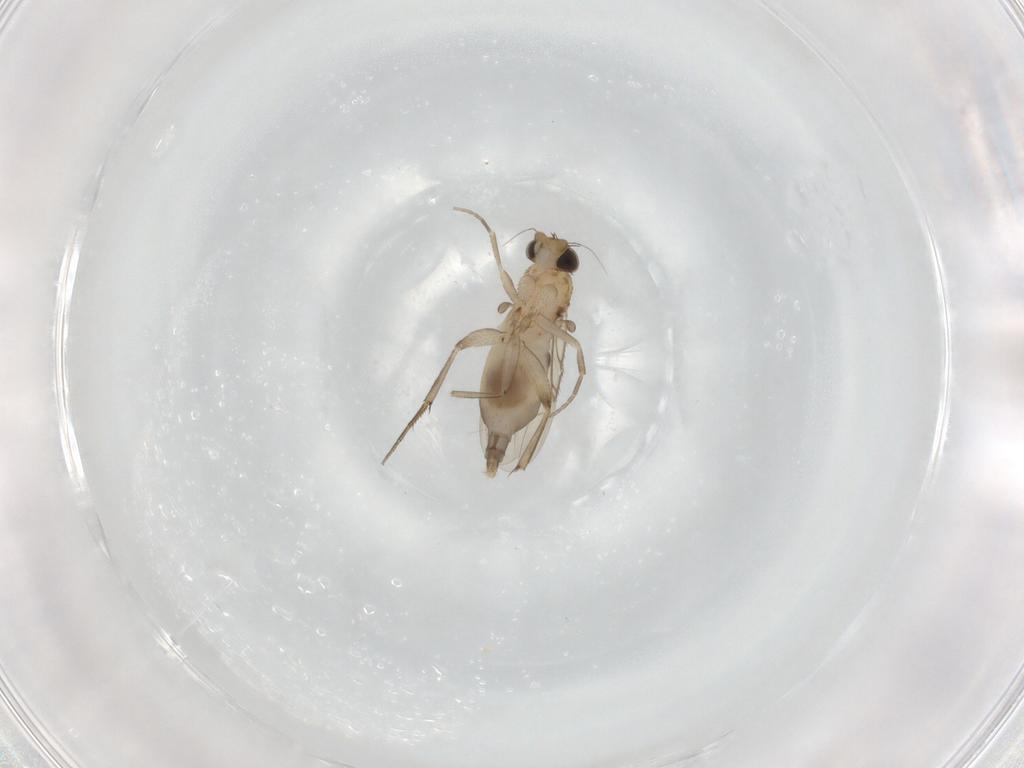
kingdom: Animalia
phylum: Arthropoda
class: Insecta
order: Diptera
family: Phoridae
